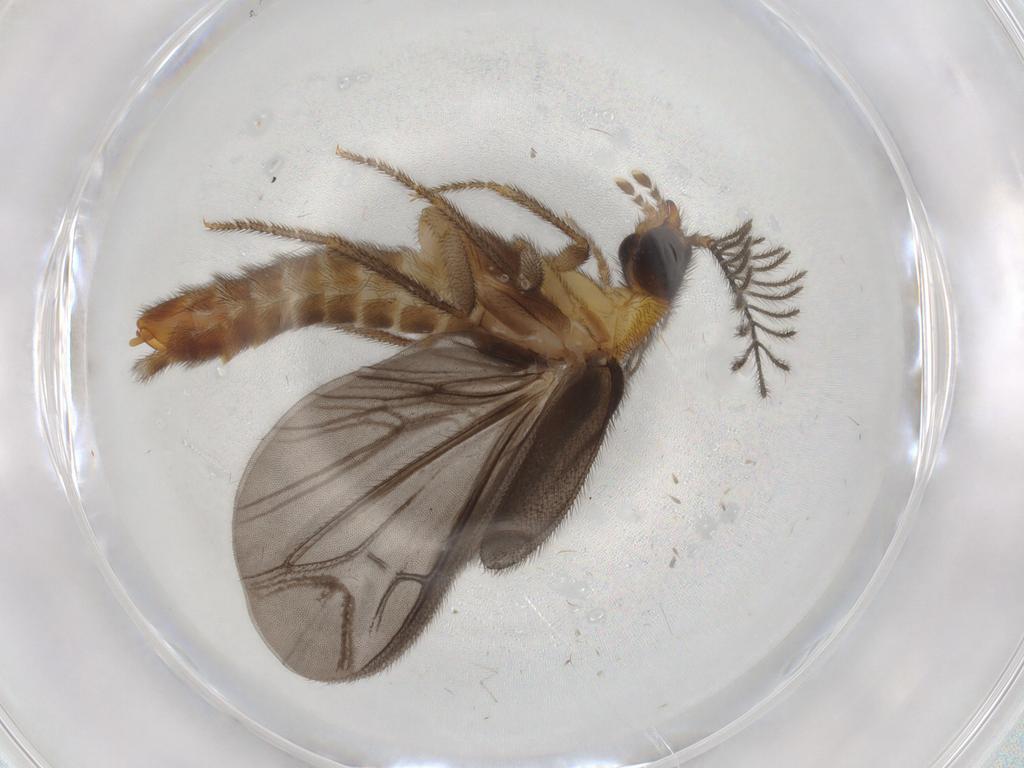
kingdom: Animalia
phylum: Arthropoda
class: Insecta
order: Coleoptera
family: Phengodidae
